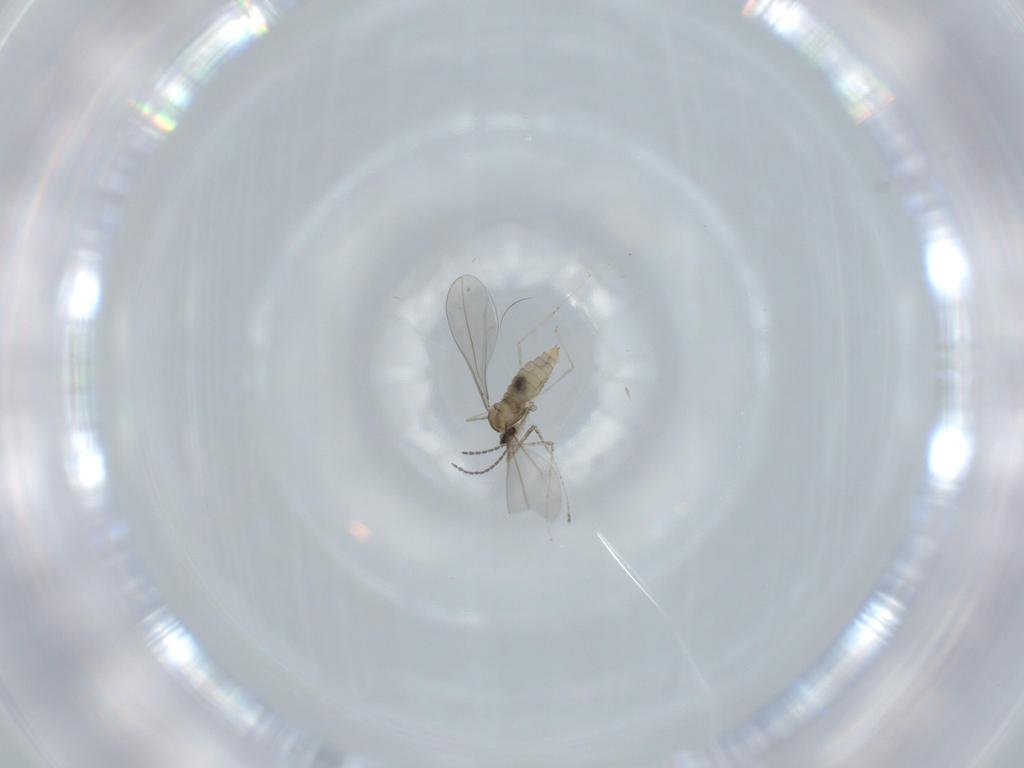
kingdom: Animalia
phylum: Arthropoda
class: Insecta
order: Diptera
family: Cecidomyiidae
